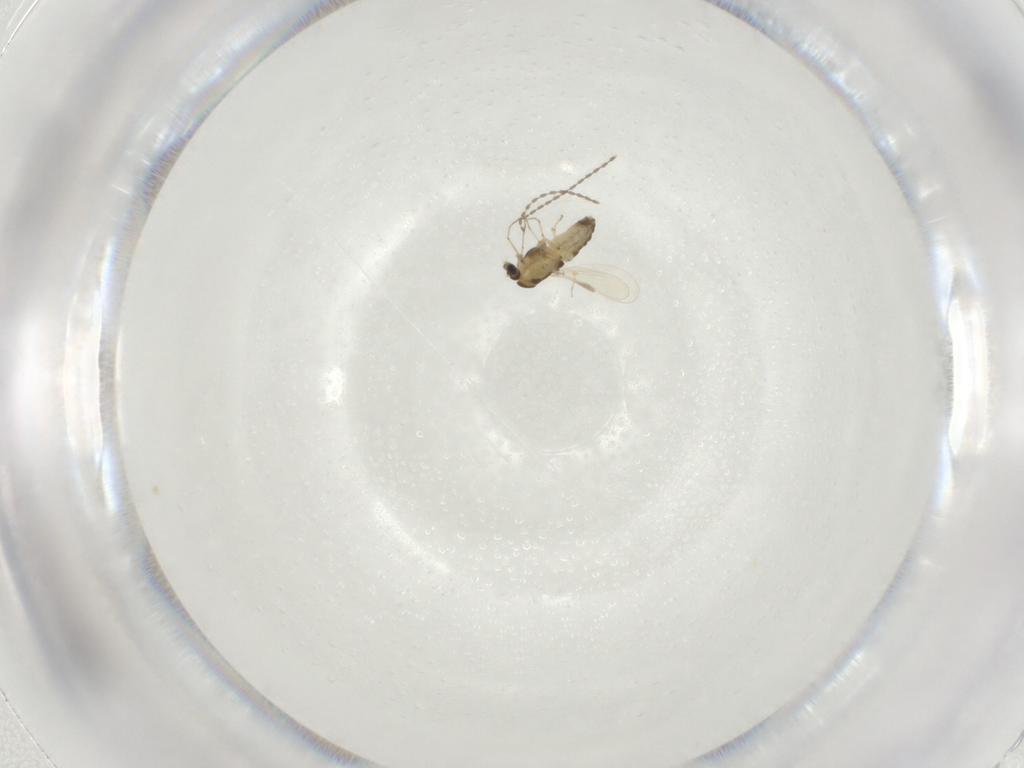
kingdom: Animalia
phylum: Arthropoda
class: Insecta
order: Diptera
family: Chironomidae
